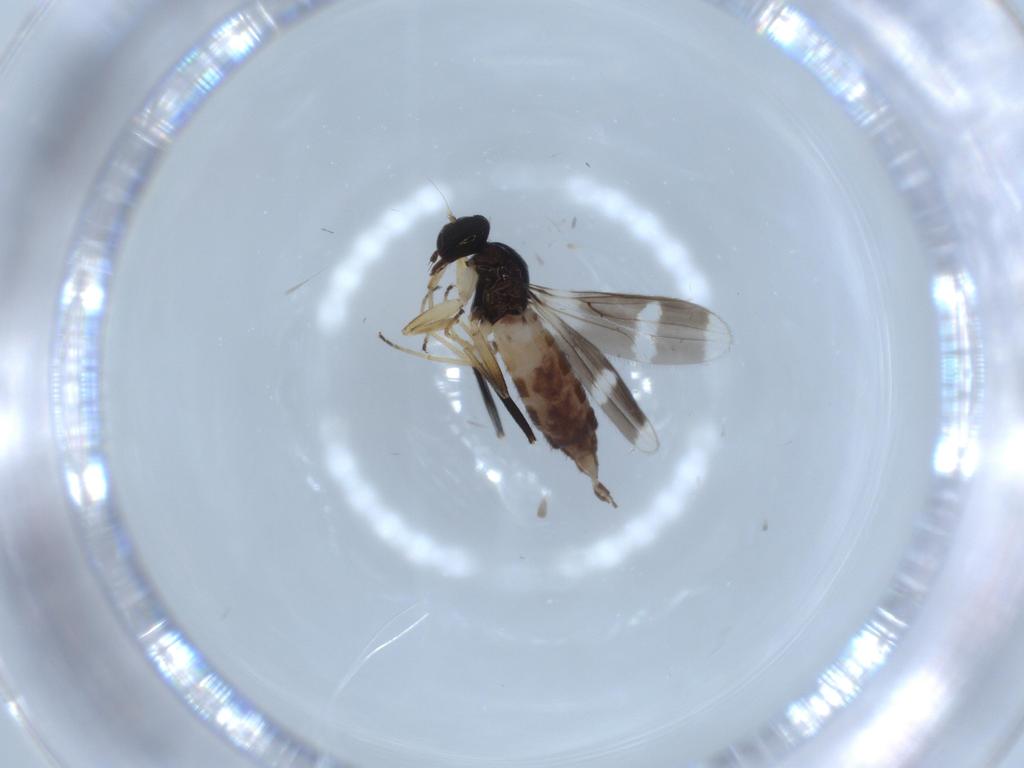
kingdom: Animalia
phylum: Arthropoda
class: Insecta
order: Diptera
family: Hybotidae
